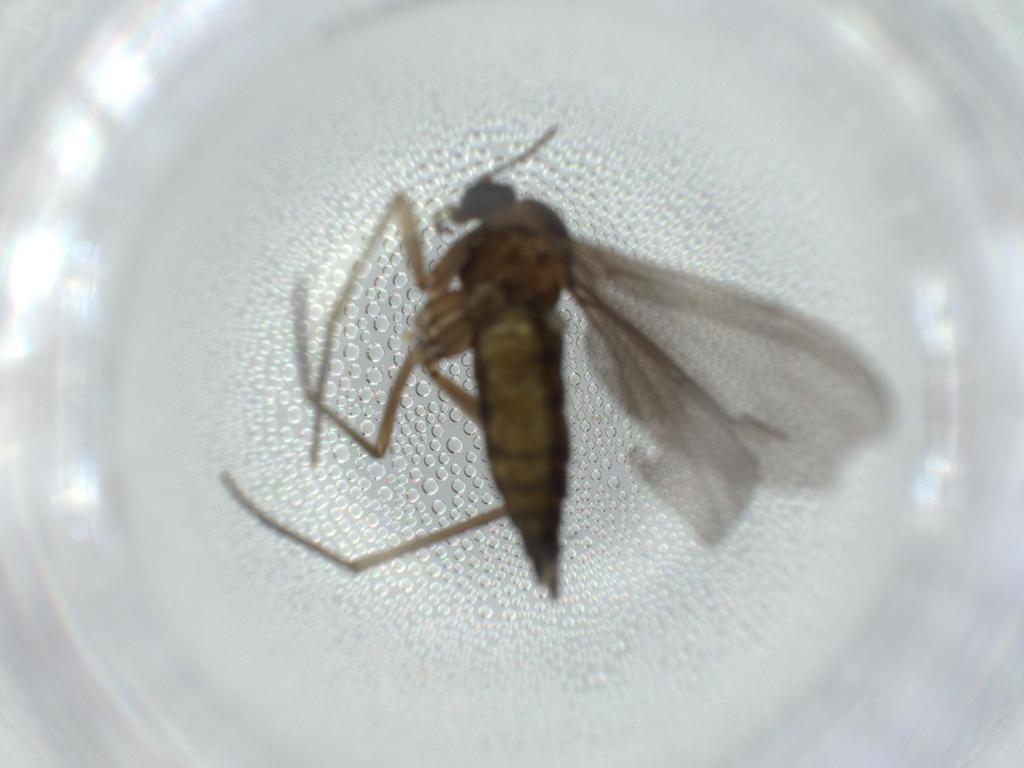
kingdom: Animalia
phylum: Arthropoda
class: Insecta
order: Diptera
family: Sciaridae
